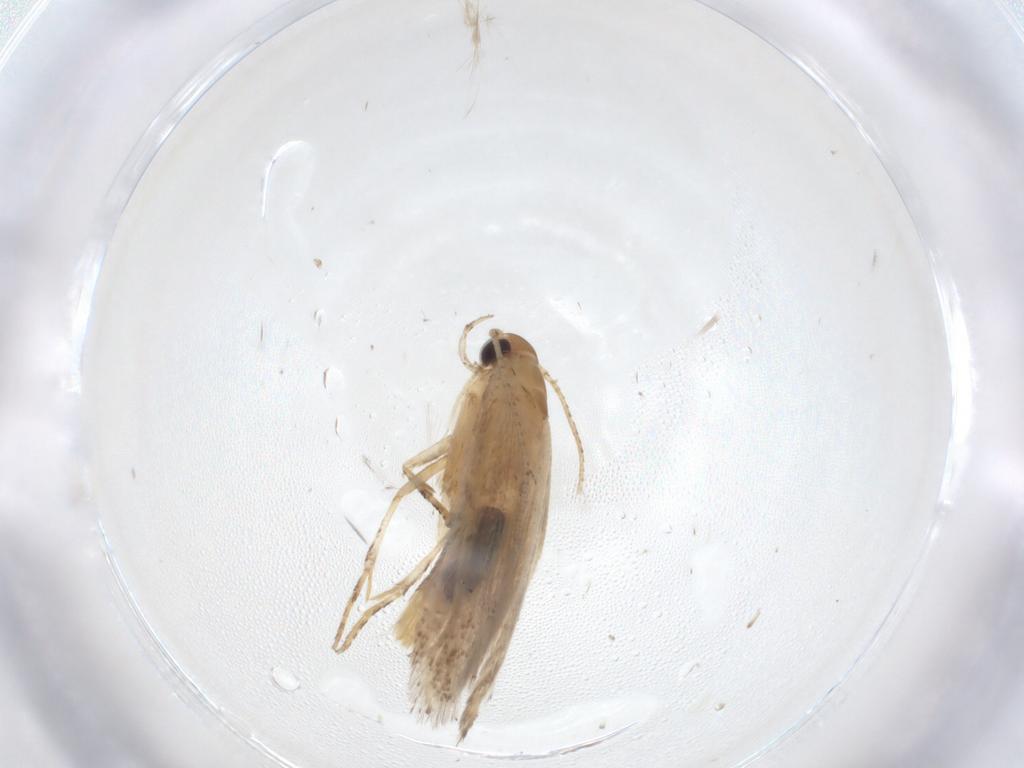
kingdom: Animalia
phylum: Arthropoda
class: Insecta
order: Lepidoptera
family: Gelechiidae
